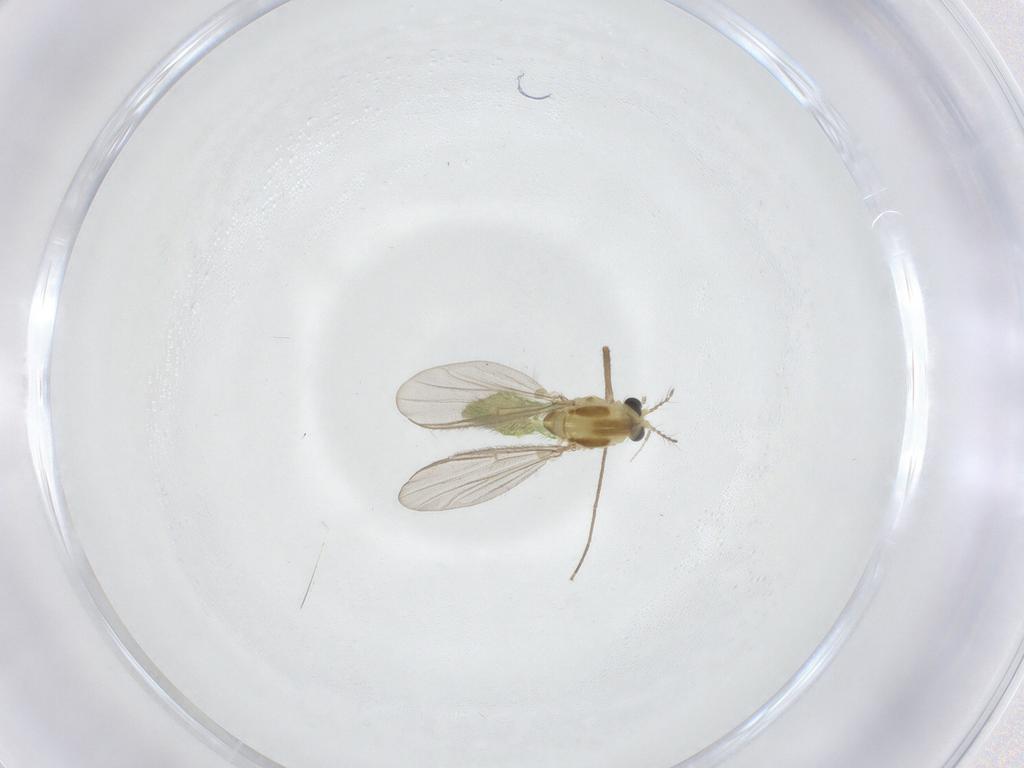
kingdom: Animalia
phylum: Arthropoda
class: Insecta
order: Diptera
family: Chironomidae
